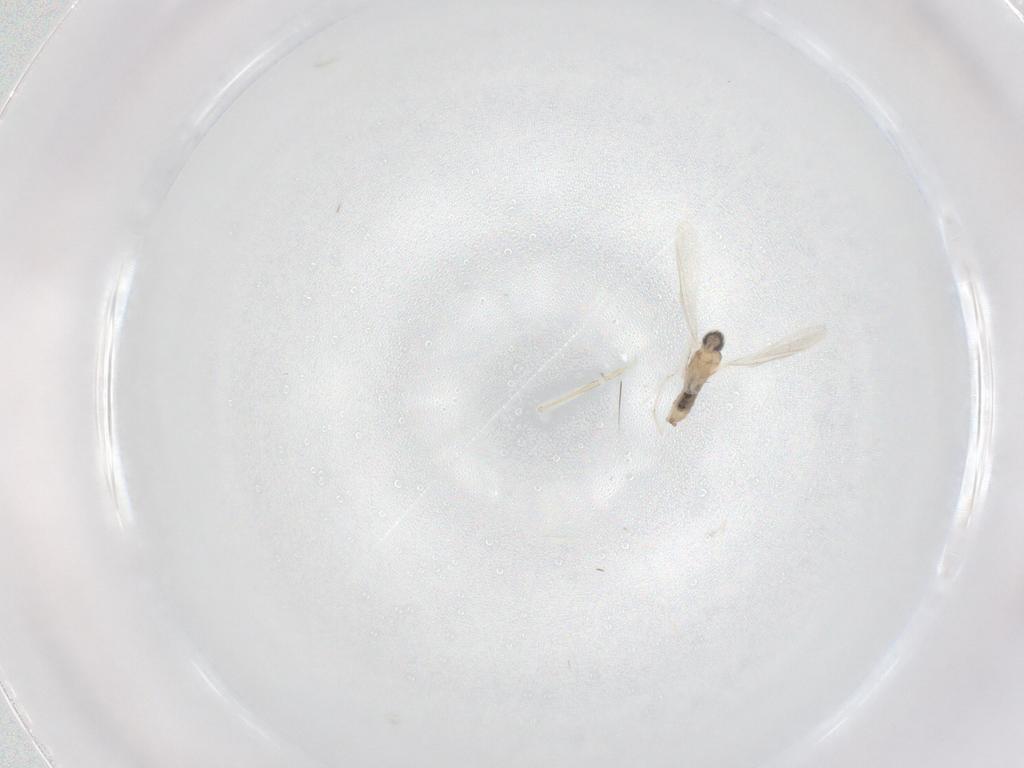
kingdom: Animalia
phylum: Arthropoda
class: Insecta
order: Diptera
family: Cecidomyiidae
